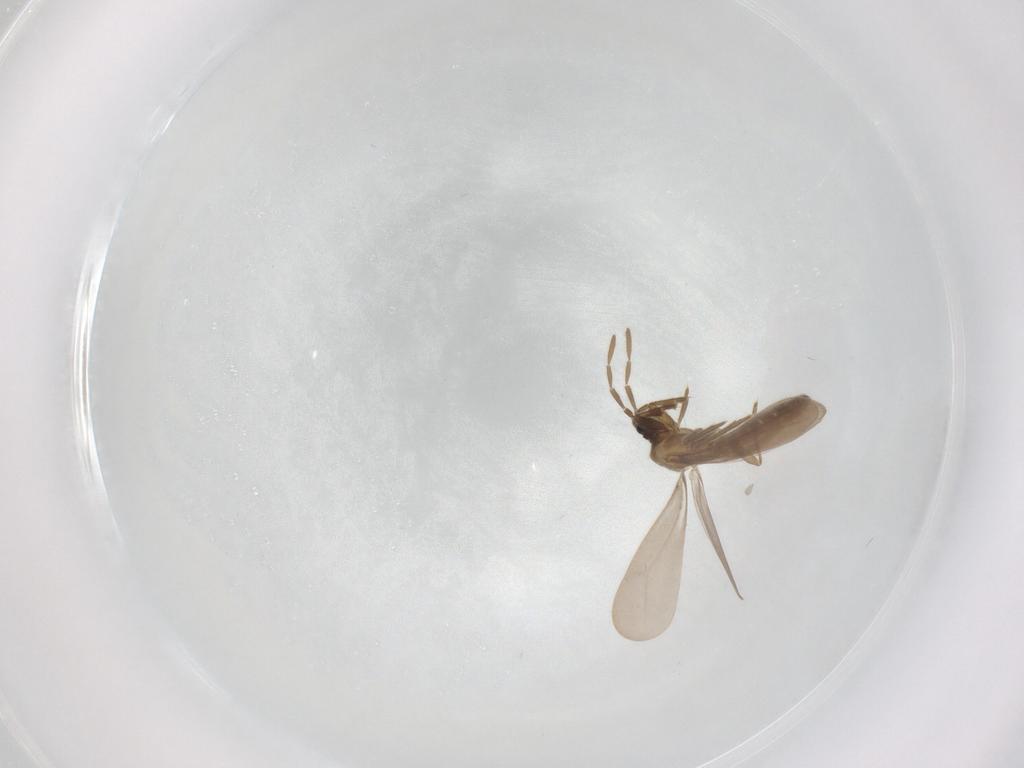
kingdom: Animalia
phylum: Arthropoda
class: Insecta
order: Hemiptera
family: Enicocephalidae
